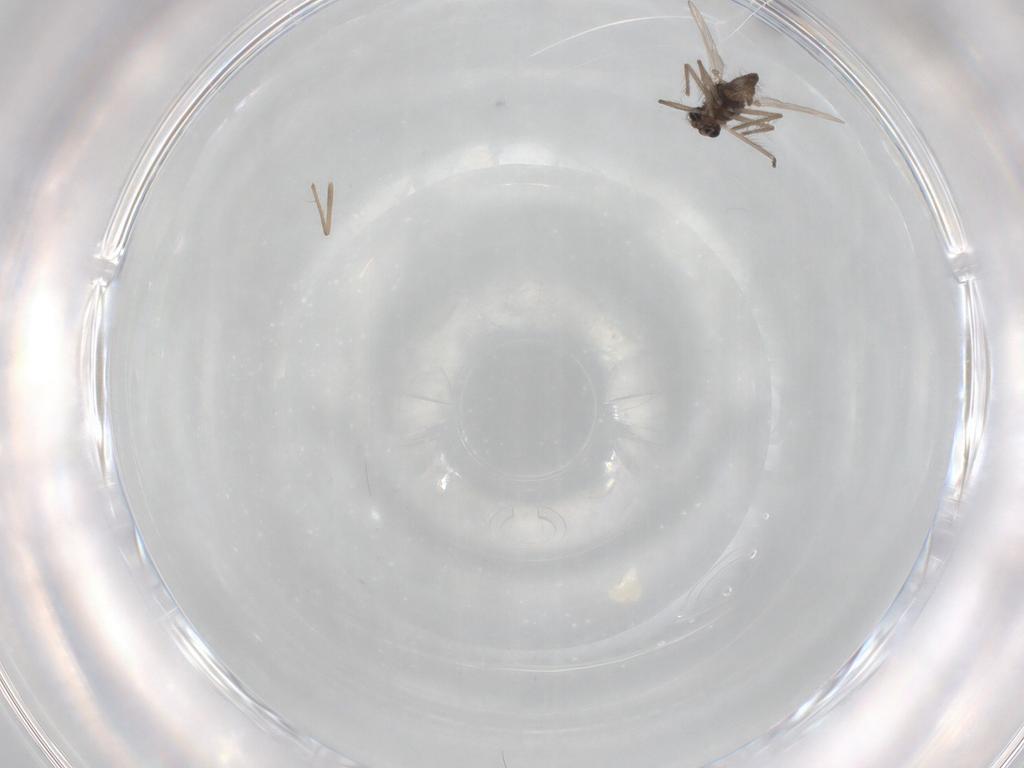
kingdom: Animalia
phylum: Arthropoda
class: Insecta
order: Diptera
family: Chironomidae
